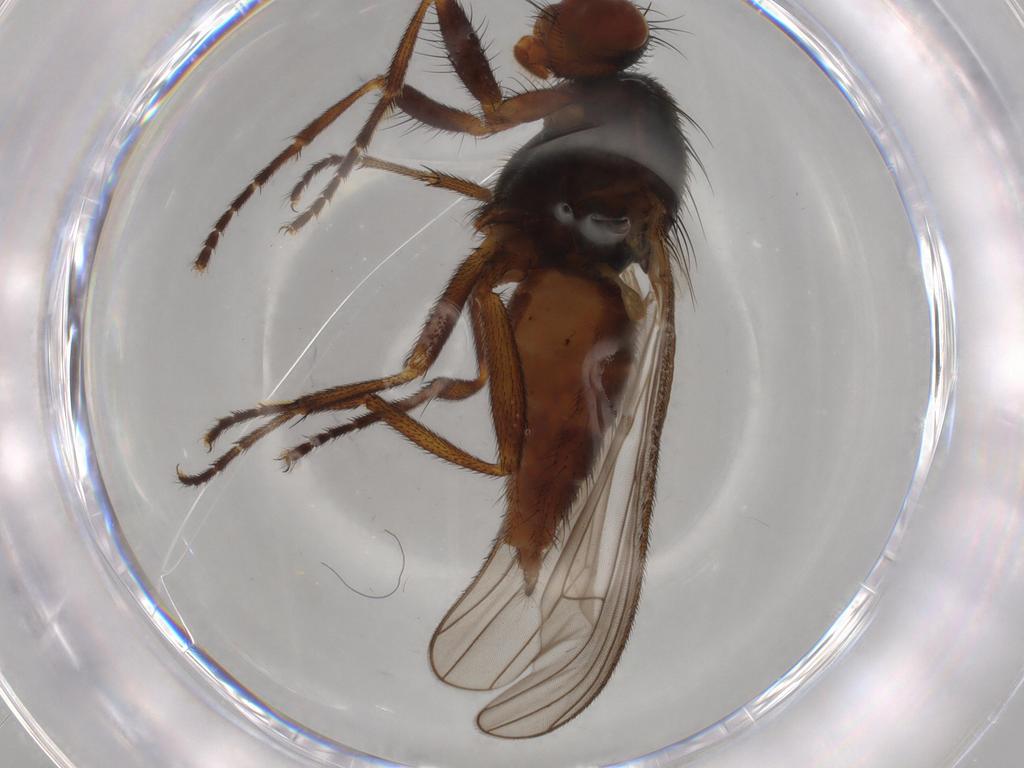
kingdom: Animalia
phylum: Arthropoda
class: Insecta
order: Diptera
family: Heleomyzidae
